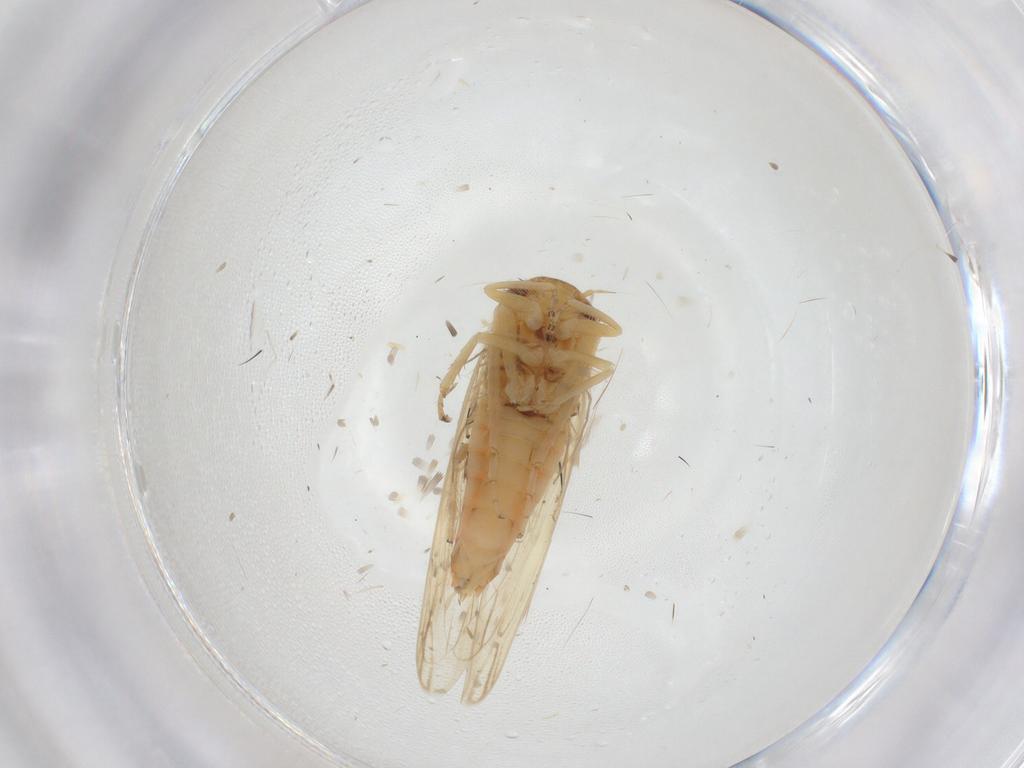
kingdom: Animalia
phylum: Arthropoda
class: Insecta
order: Hemiptera
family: Cicadellidae
